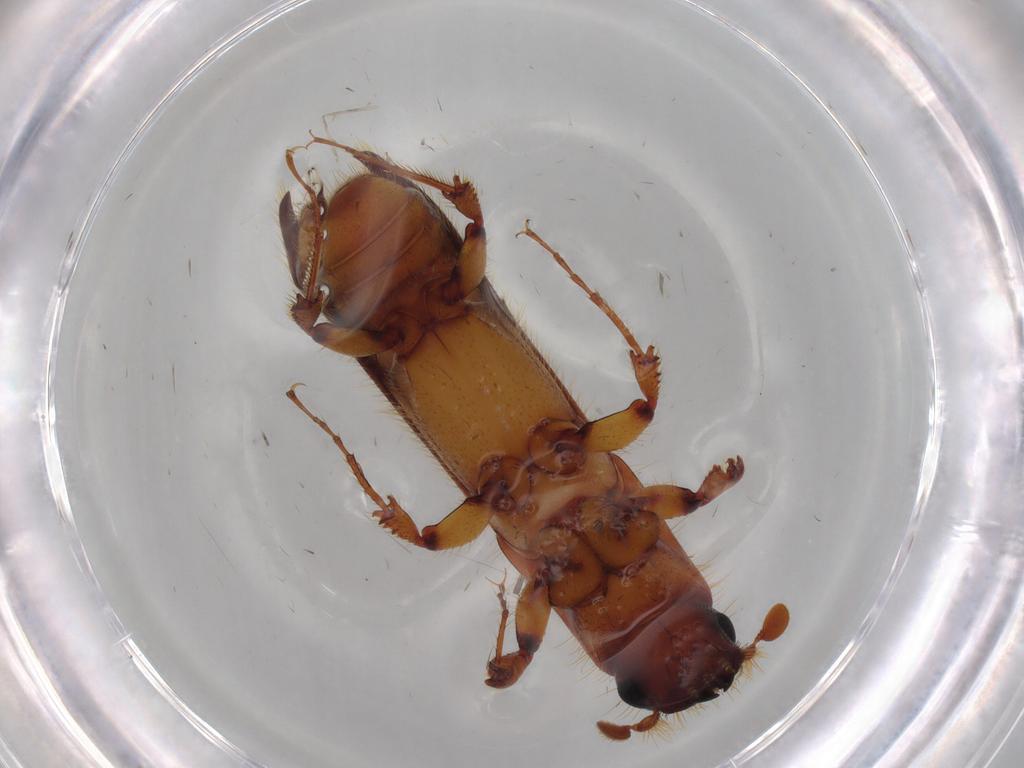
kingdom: Animalia
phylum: Arthropoda
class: Insecta
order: Coleoptera
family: Curculionidae
